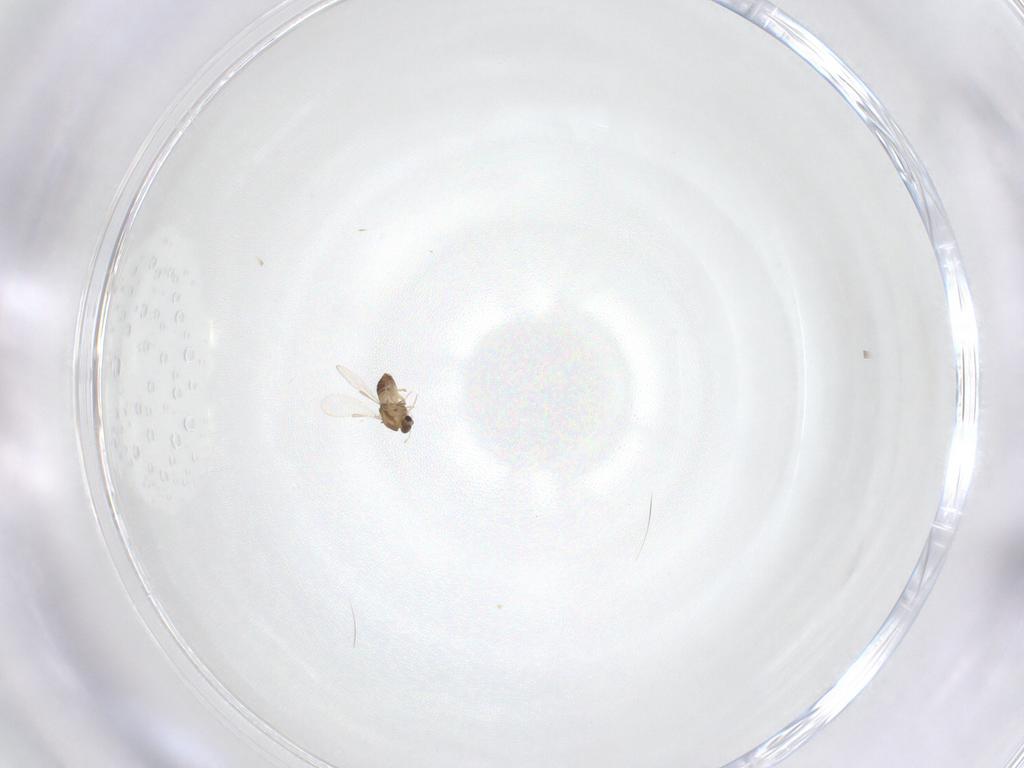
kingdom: Animalia
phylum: Arthropoda
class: Insecta
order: Diptera
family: Chironomidae
